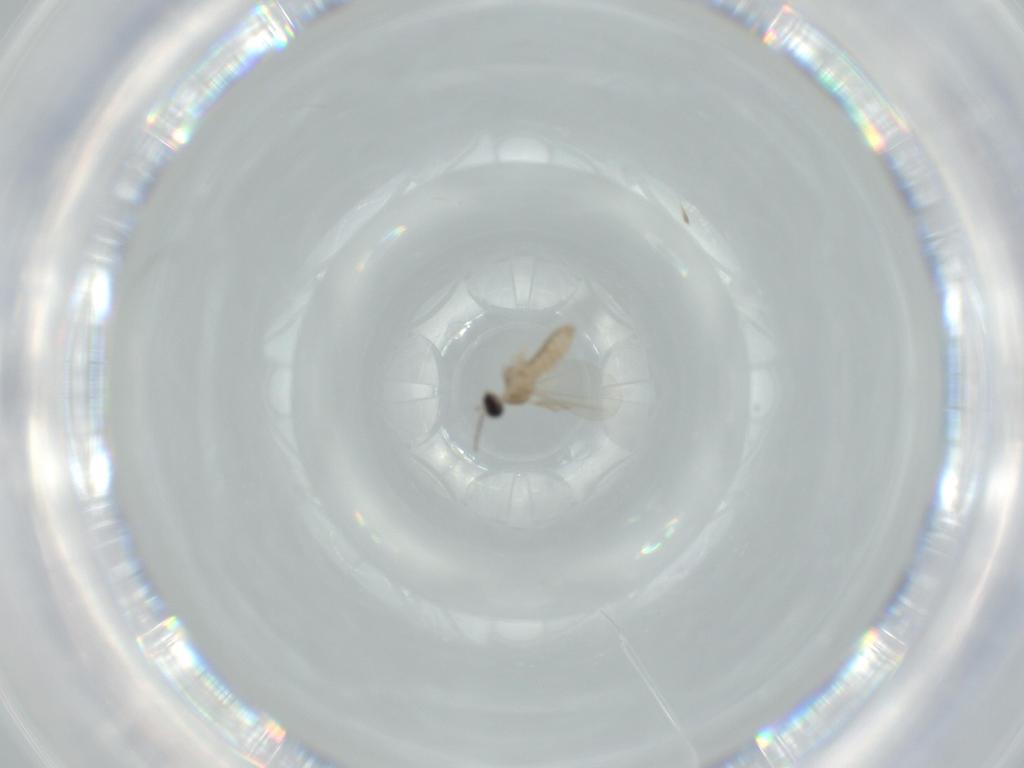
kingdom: Animalia
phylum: Arthropoda
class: Insecta
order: Diptera
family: Cecidomyiidae
